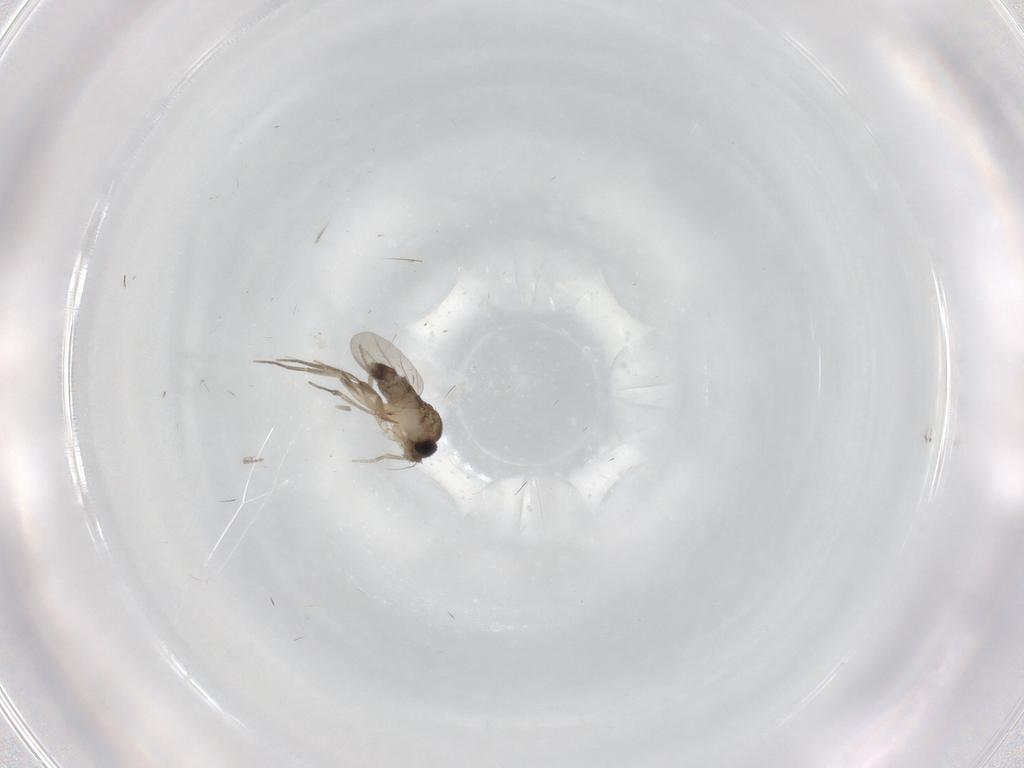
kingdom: Animalia
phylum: Arthropoda
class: Insecta
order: Diptera
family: Phoridae
